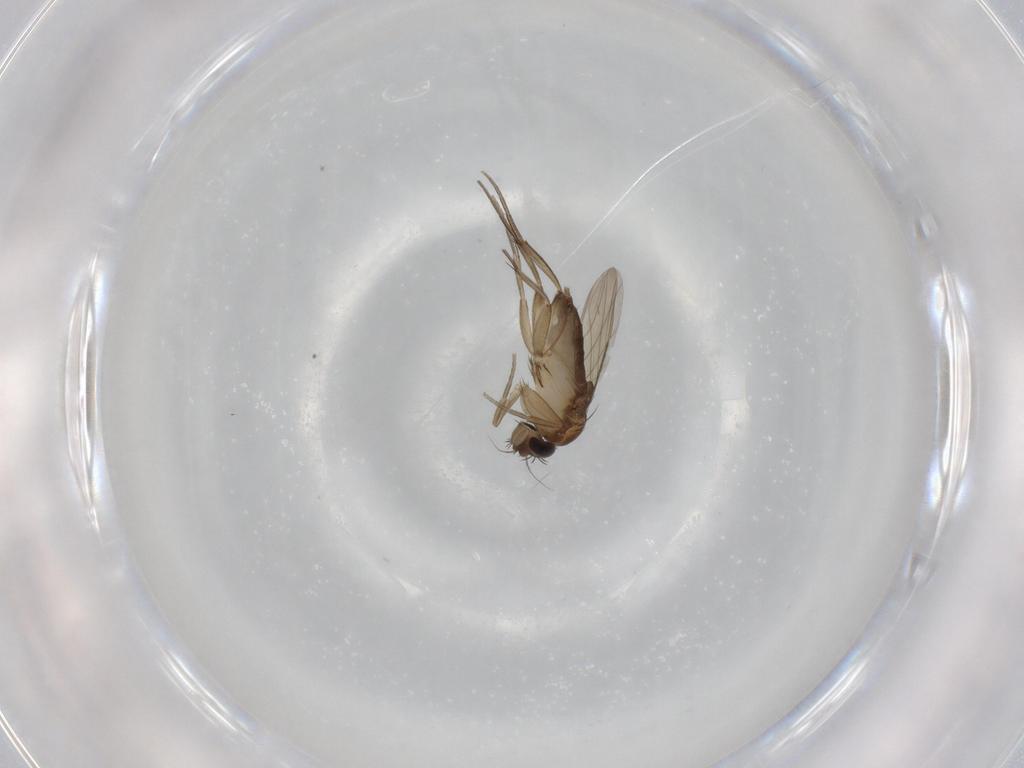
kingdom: Animalia
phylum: Arthropoda
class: Insecta
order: Diptera
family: Phoridae
